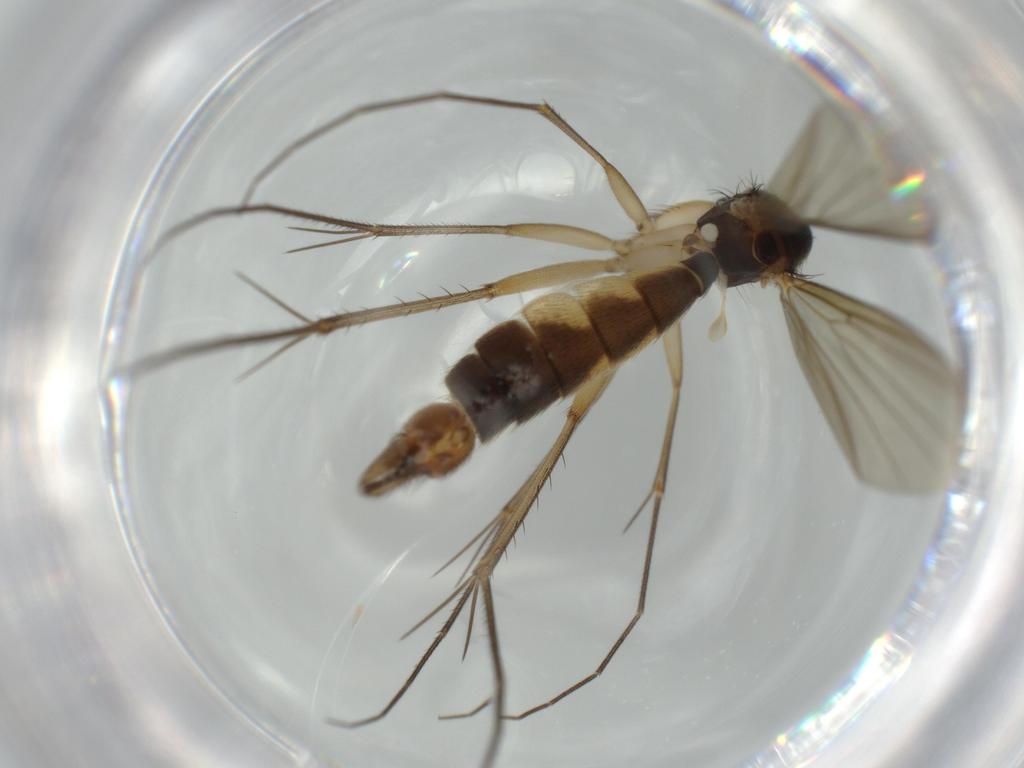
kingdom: Animalia
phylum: Arthropoda
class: Insecta
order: Diptera
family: Mycetophilidae
